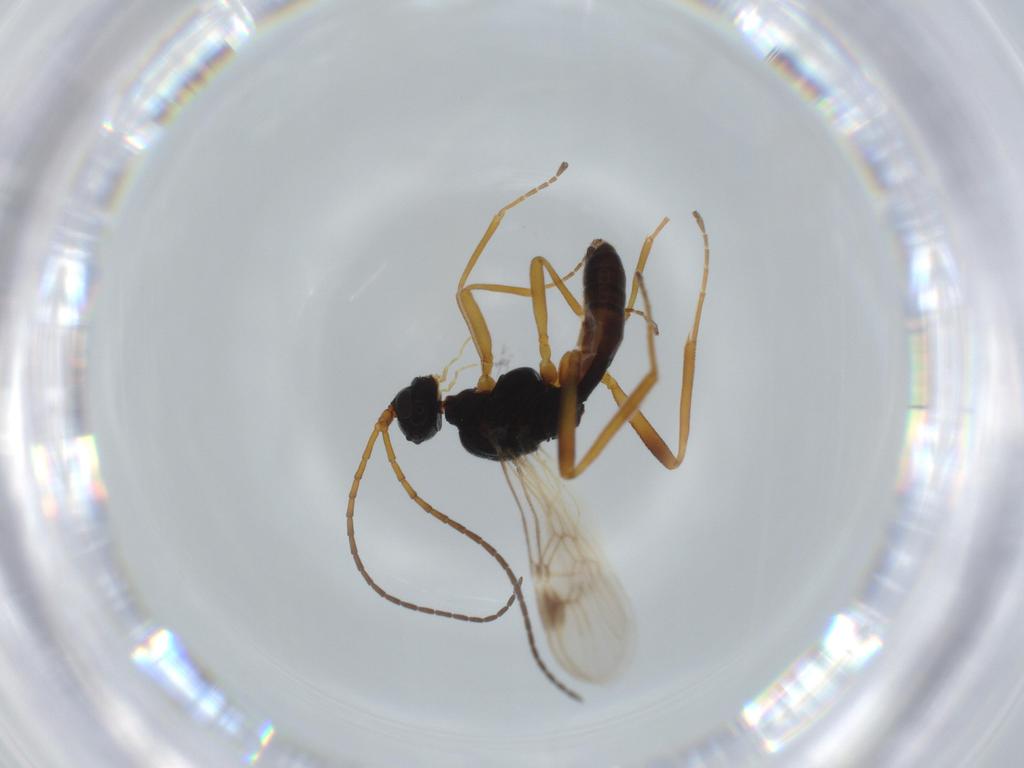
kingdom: Animalia
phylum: Arthropoda
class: Insecta
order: Hymenoptera
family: Braconidae
